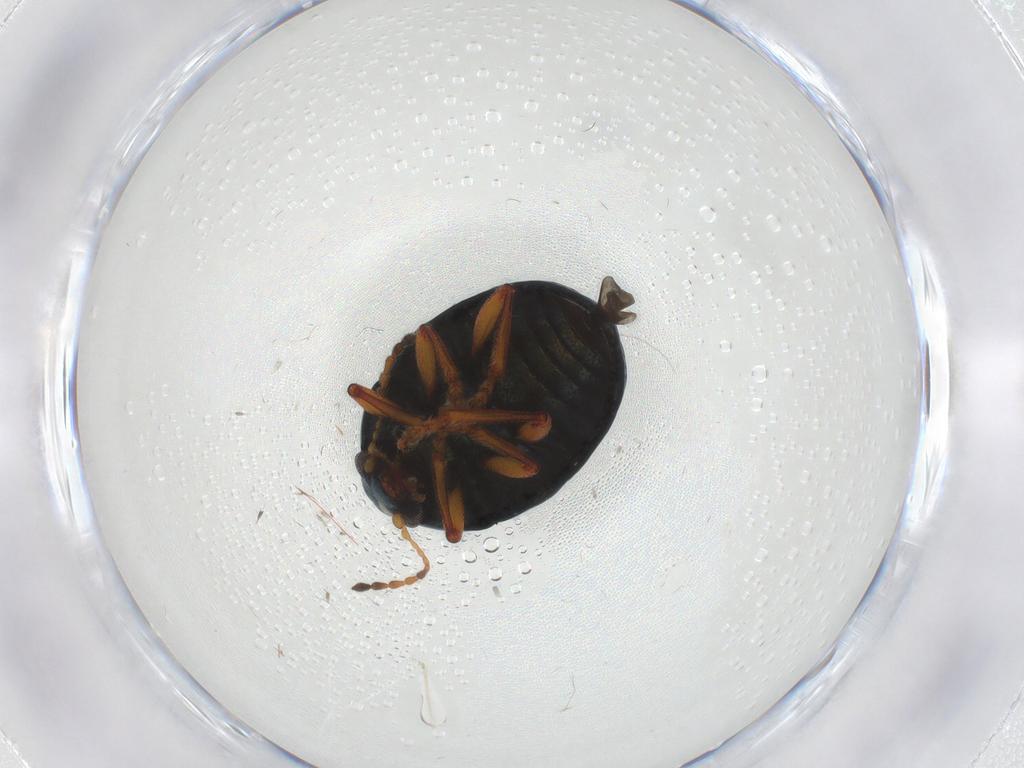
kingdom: Animalia
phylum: Arthropoda
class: Insecta
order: Coleoptera
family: Chrysomelidae
